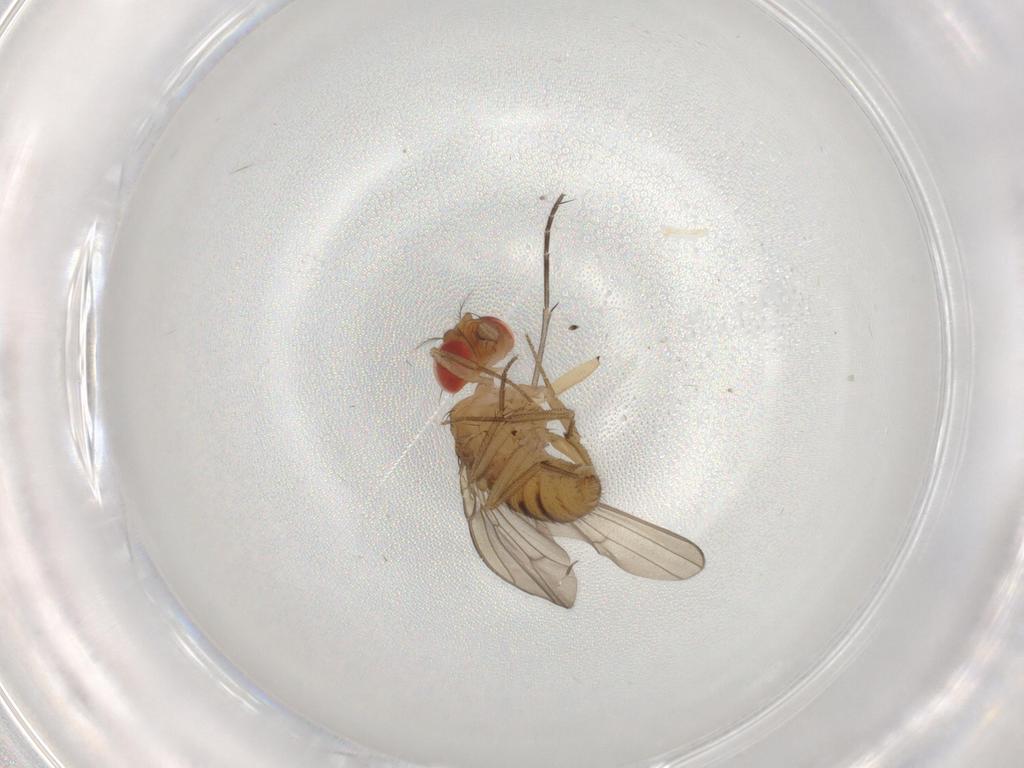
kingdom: Animalia
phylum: Arthropoda
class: Insecta
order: Diptera
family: Drosophilidae
